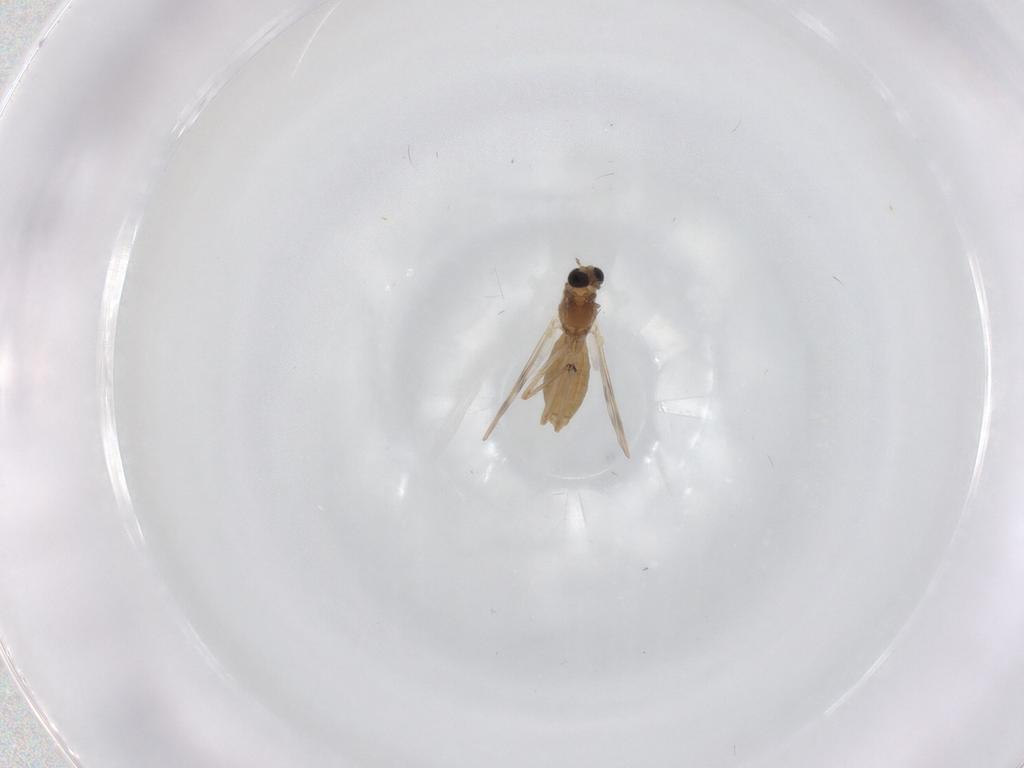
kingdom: Animalia
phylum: Arthropoda
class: Insecta
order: Diptera
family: Chironomidae
